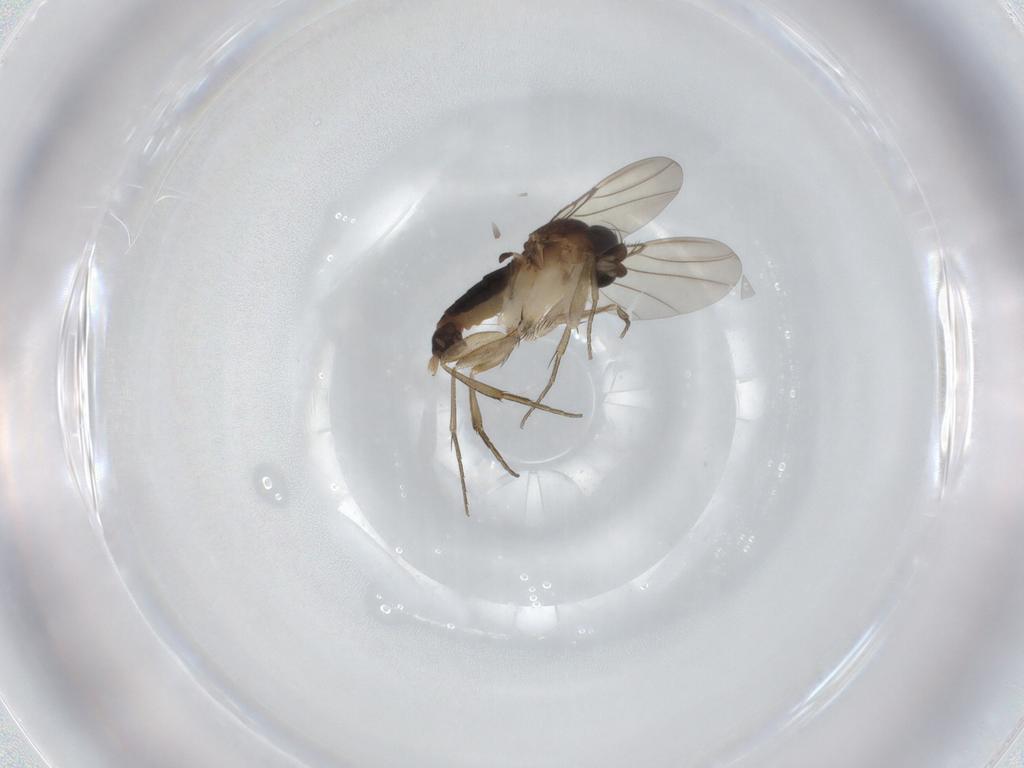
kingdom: Animalia
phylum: Arthropoda
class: Insecta
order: Diptera
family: Phoridae
